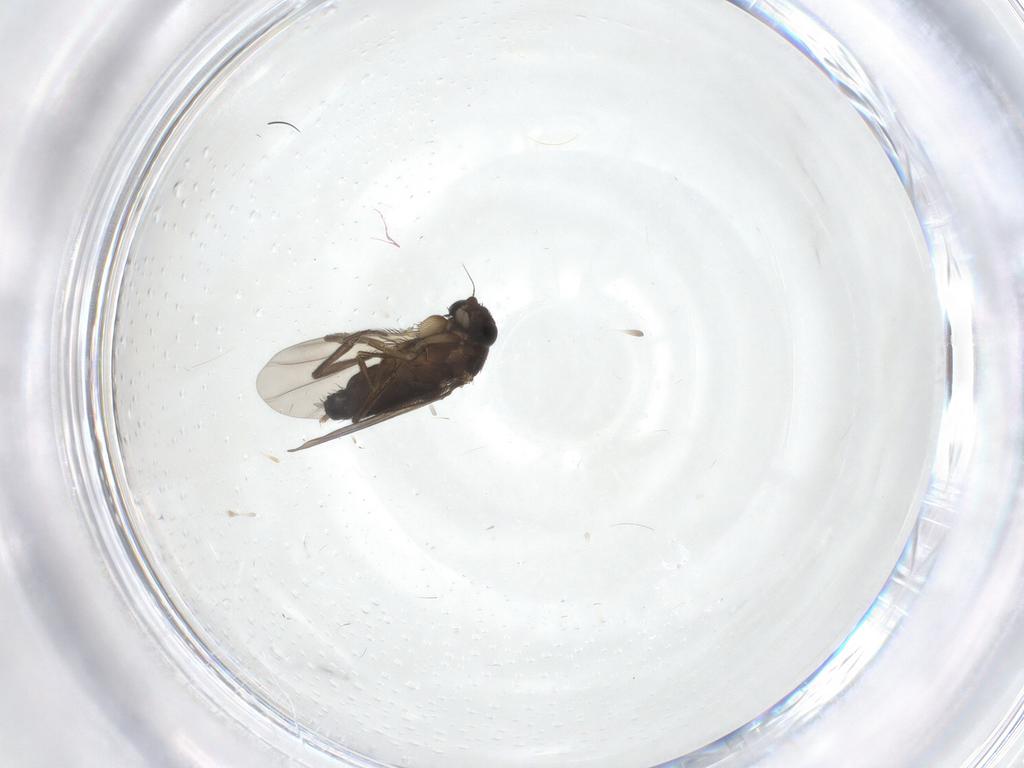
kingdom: Animalia
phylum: Arthropoda
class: Insecta
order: Diptera
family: Phoridae
